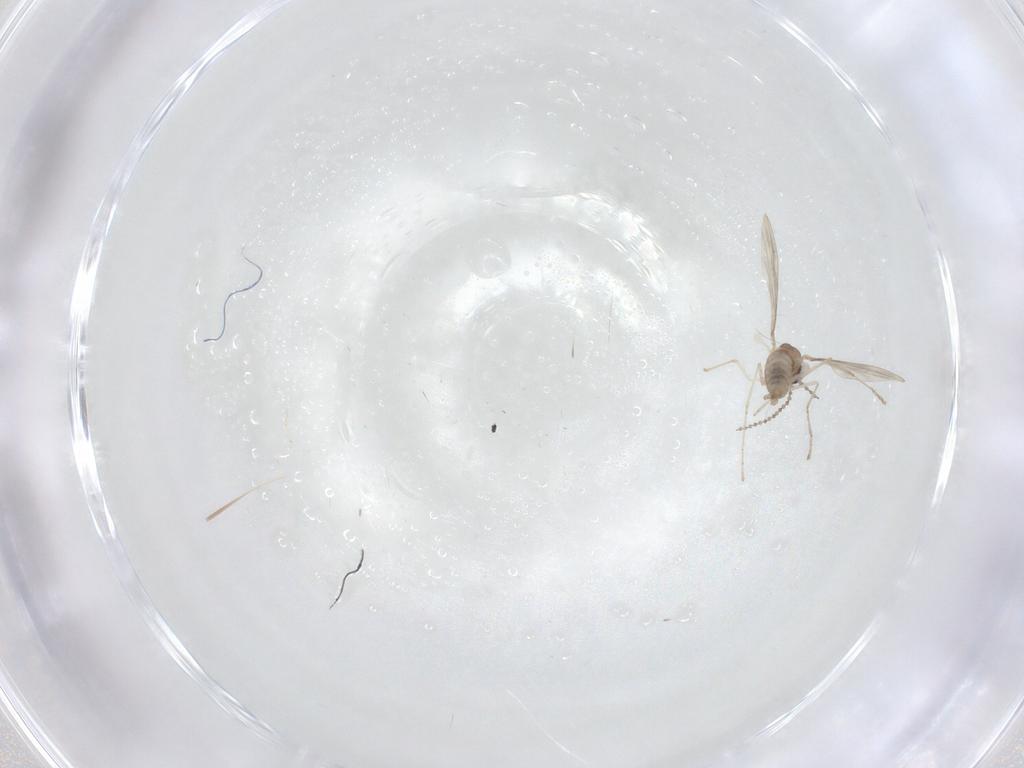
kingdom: Animalia
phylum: Arthropoda
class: Insecta
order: Diptera
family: Cecidomyiidae
